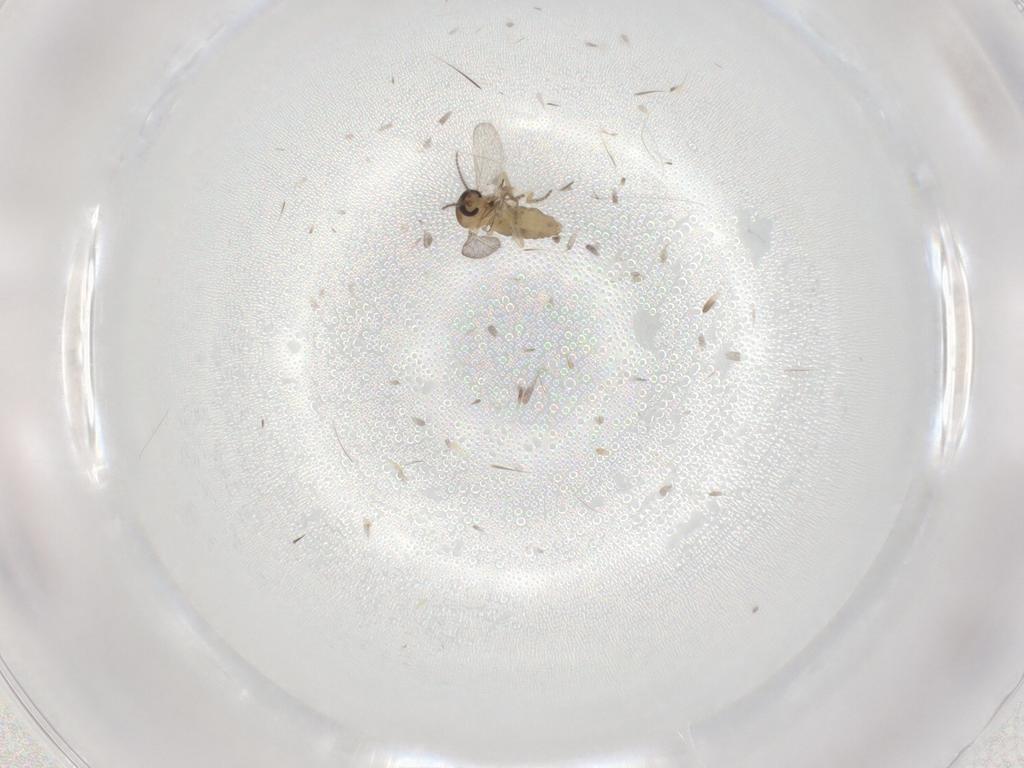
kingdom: Animalia
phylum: Arthropoda
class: Insecta
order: Diptera
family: Ceratopogonidae
